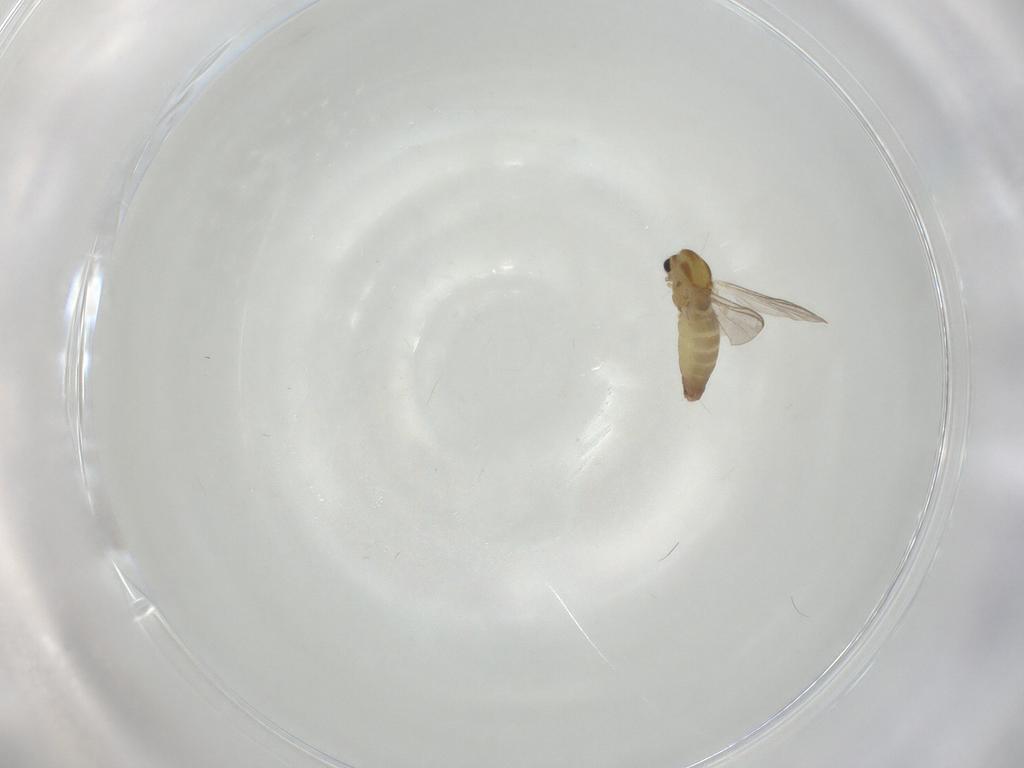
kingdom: Animalia
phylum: Arthropoda
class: Insecta
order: Diptera
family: Chironomidae
